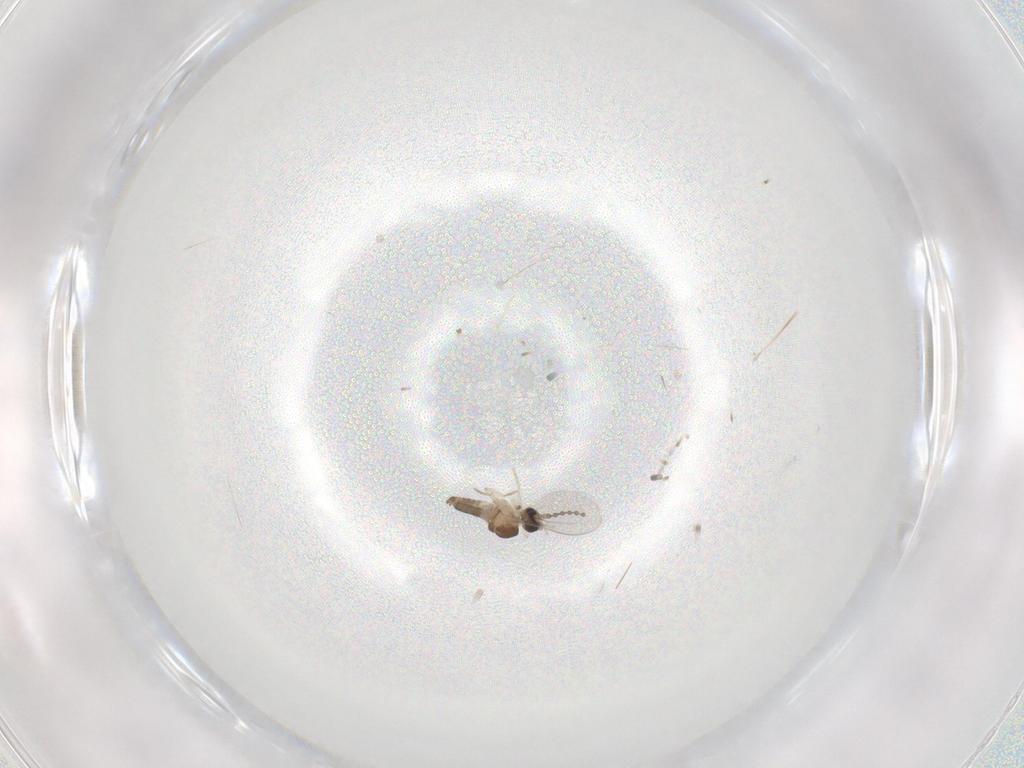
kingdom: Animalia
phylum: Arthropoda
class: Insecta
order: Diptera
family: Cecidomyiidae
